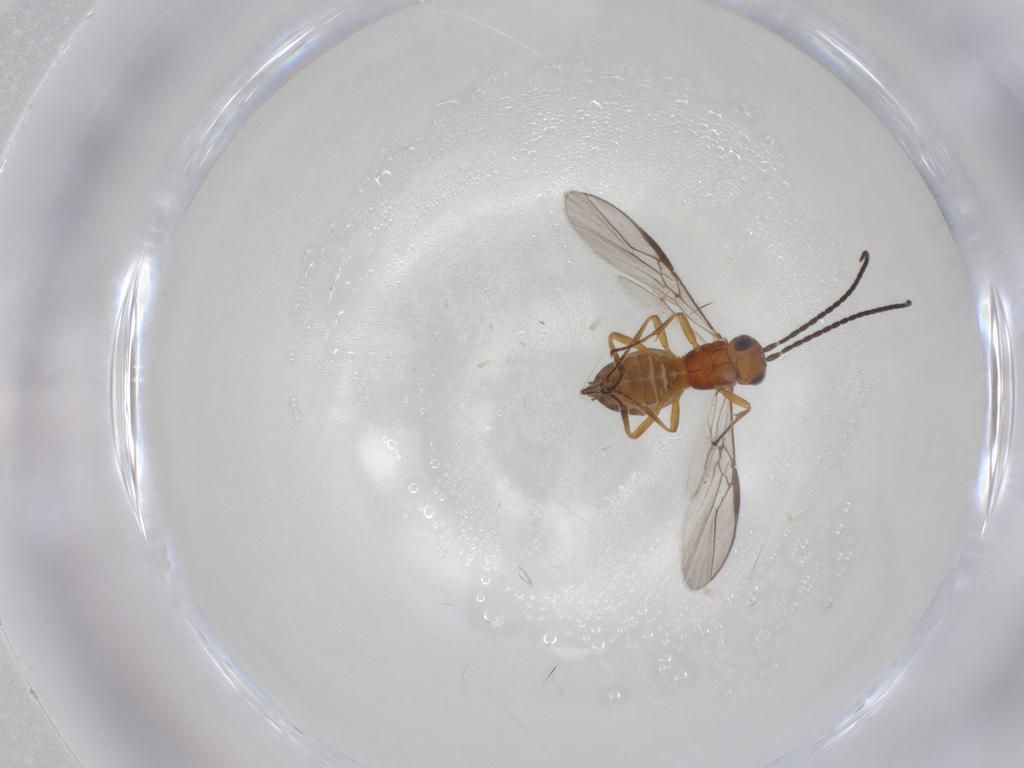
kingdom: Animalia
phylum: Arthropoda
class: Insecta
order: Hymenoptera
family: Braconidae
